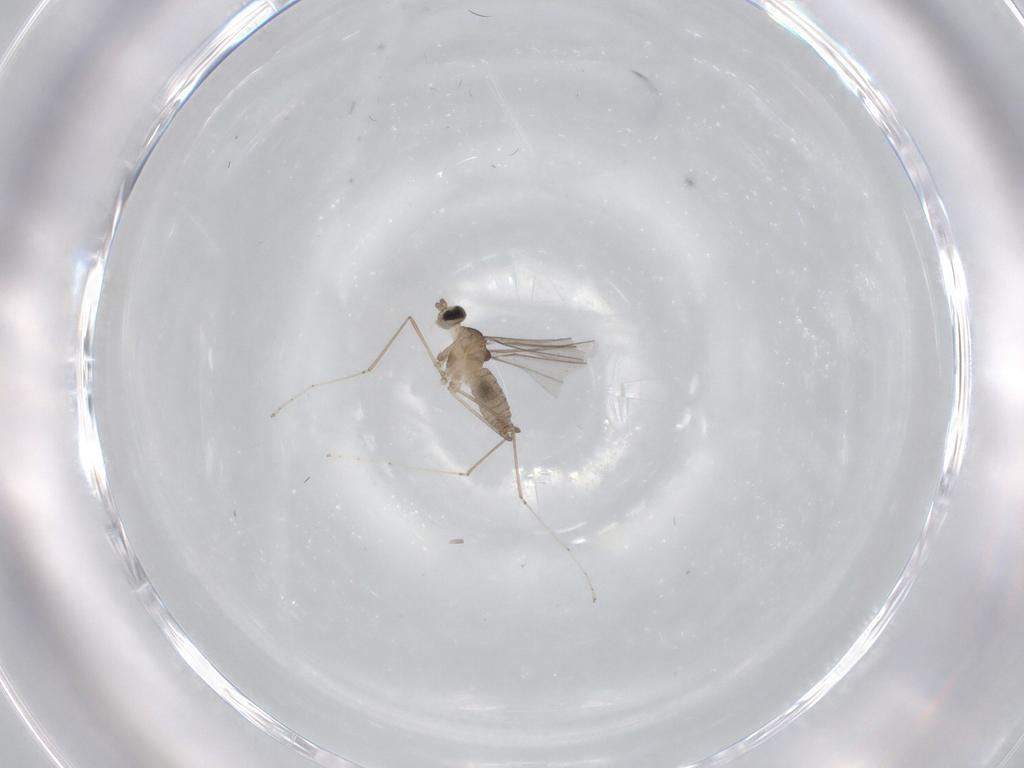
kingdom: Animalia
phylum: Arthropoda
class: Insecta
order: Diptera
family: Cecidomyiidae
